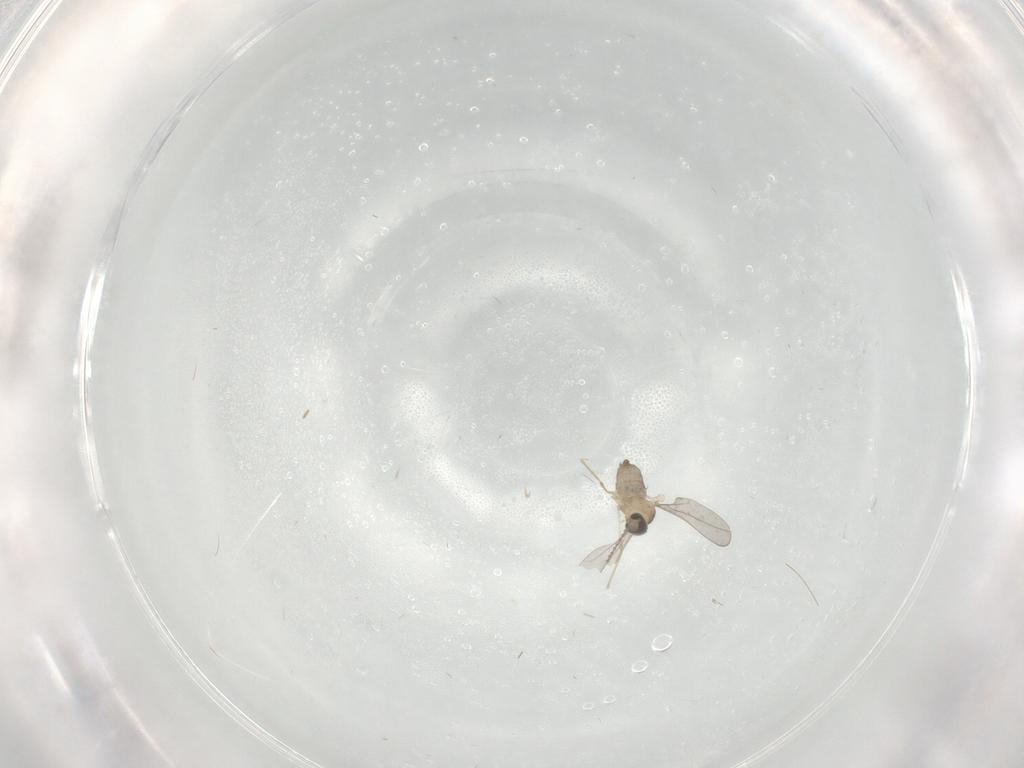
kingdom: Animalia
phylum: Arthropoda
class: Insecta
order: Diptera
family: Cecidomyiidae
